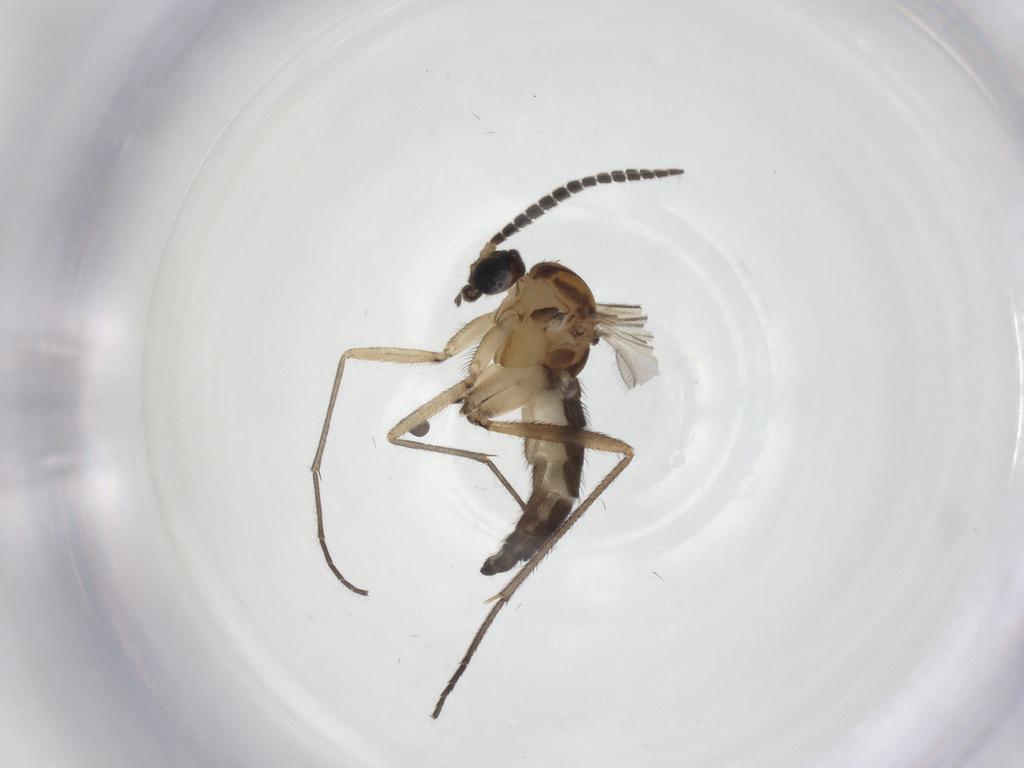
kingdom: Animalia
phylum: Arthropoda
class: Insecta
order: Diptera
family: Sciaridae
